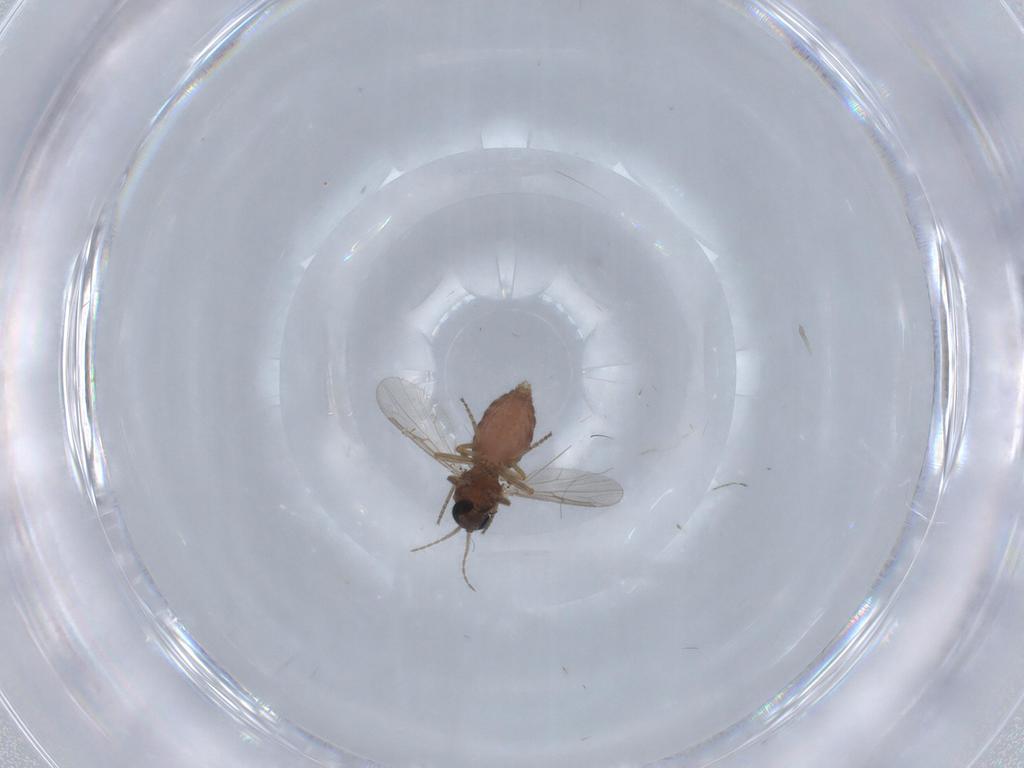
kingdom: Animalia
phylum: Arthropoda
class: Insecta
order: Diptera
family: Ceratopogonidae
